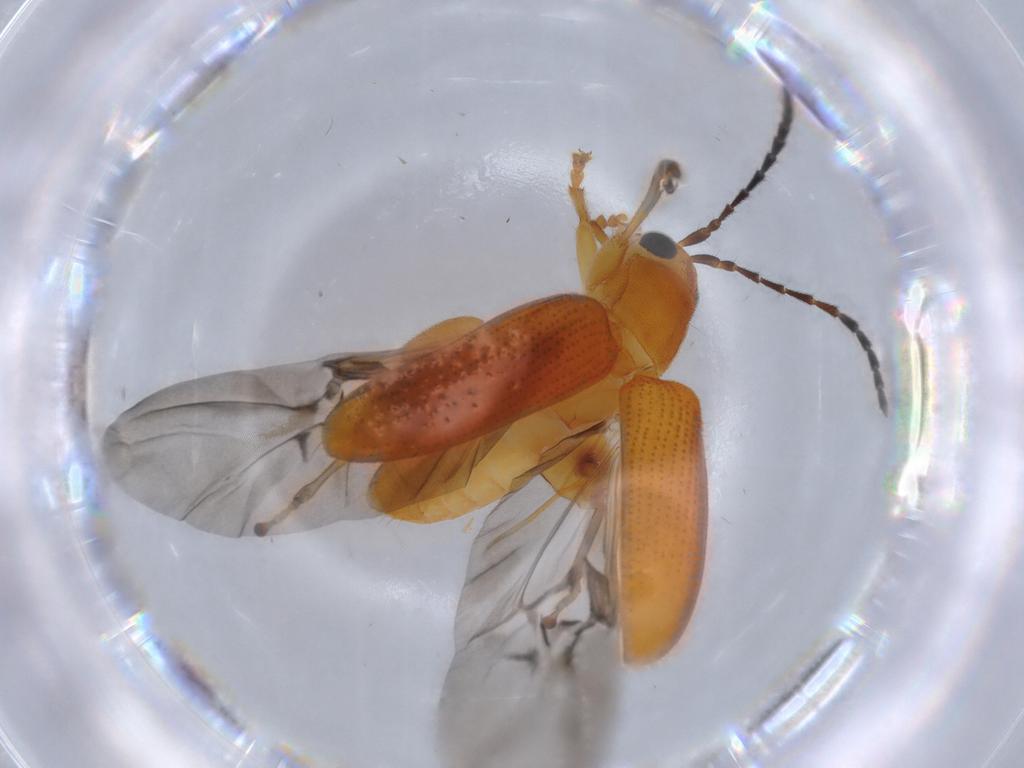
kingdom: Animalia
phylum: Arthropoda
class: Insecta
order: Coleoptera
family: Chrysomelidae
